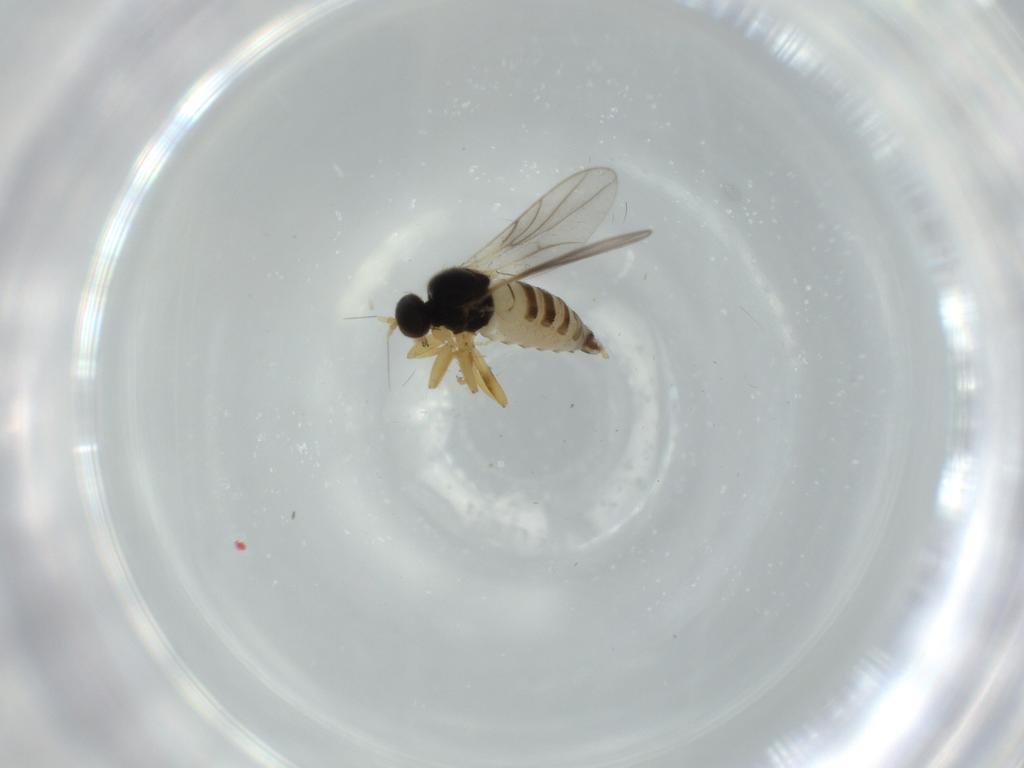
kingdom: Animalia
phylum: Arthropoda
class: Insecta
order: Diptera
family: Hybotidae
